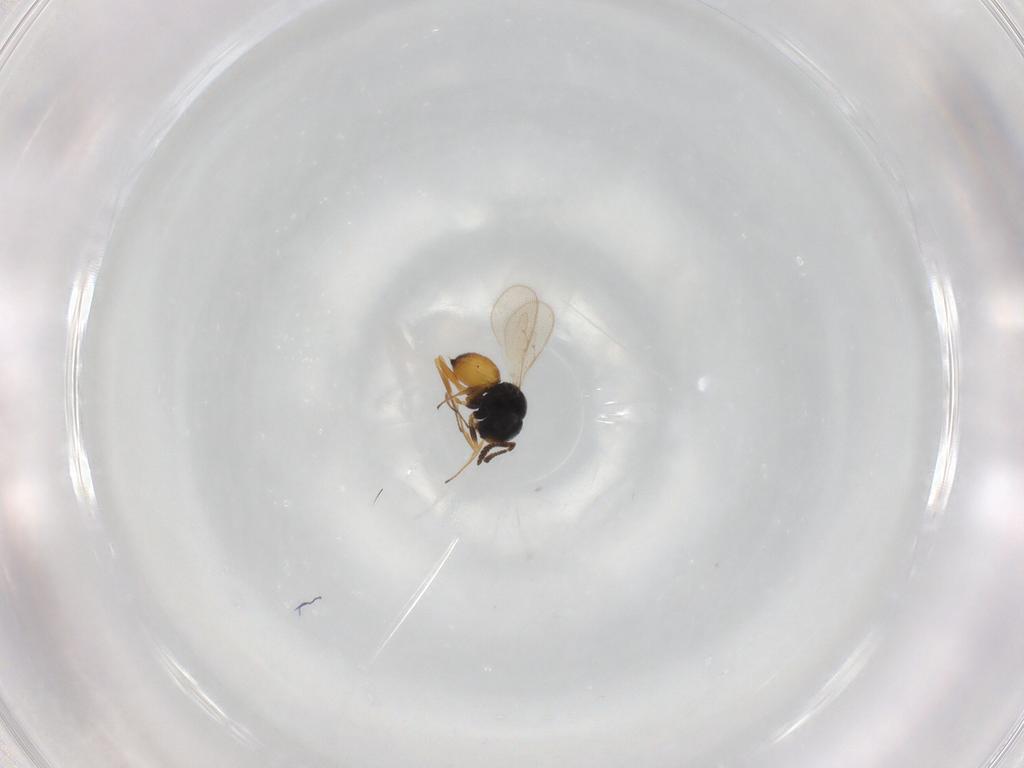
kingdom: Animalia
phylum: Arthropoda
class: Insecta
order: Hymenoptera
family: Scelionidae
